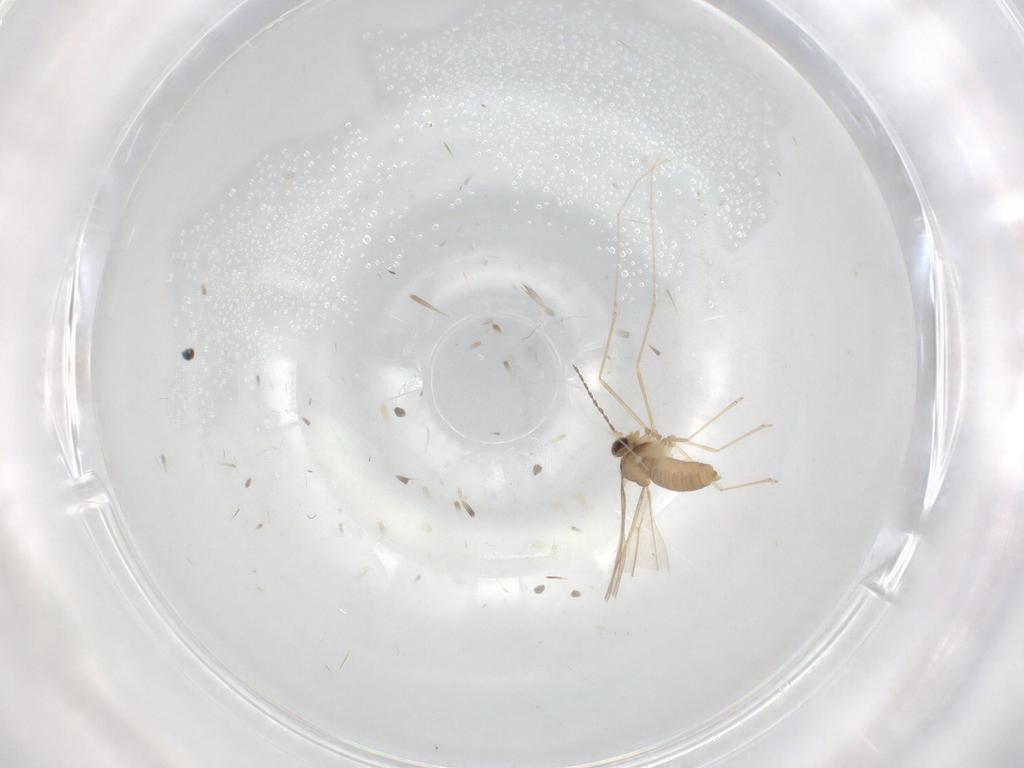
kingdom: Animalia
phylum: Arthropoda
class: Insecta
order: Diptera
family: Cecidomyiidae
